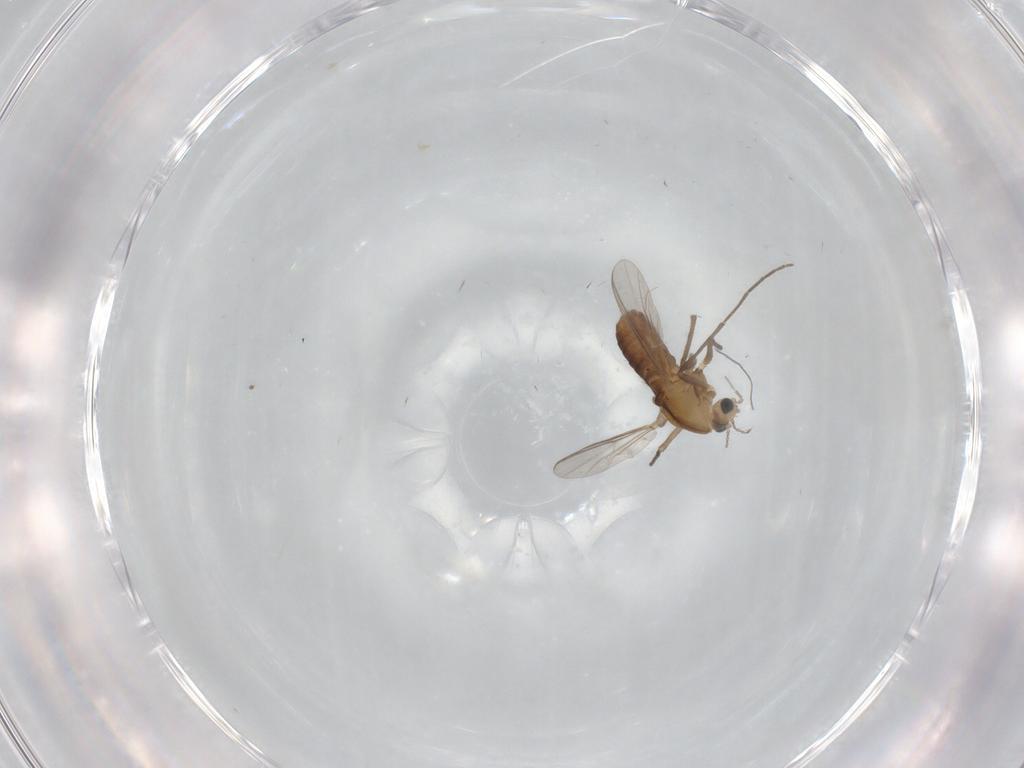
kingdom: Animalia
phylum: Arthropoda
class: Insecta
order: Diptera
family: Chironomidae
